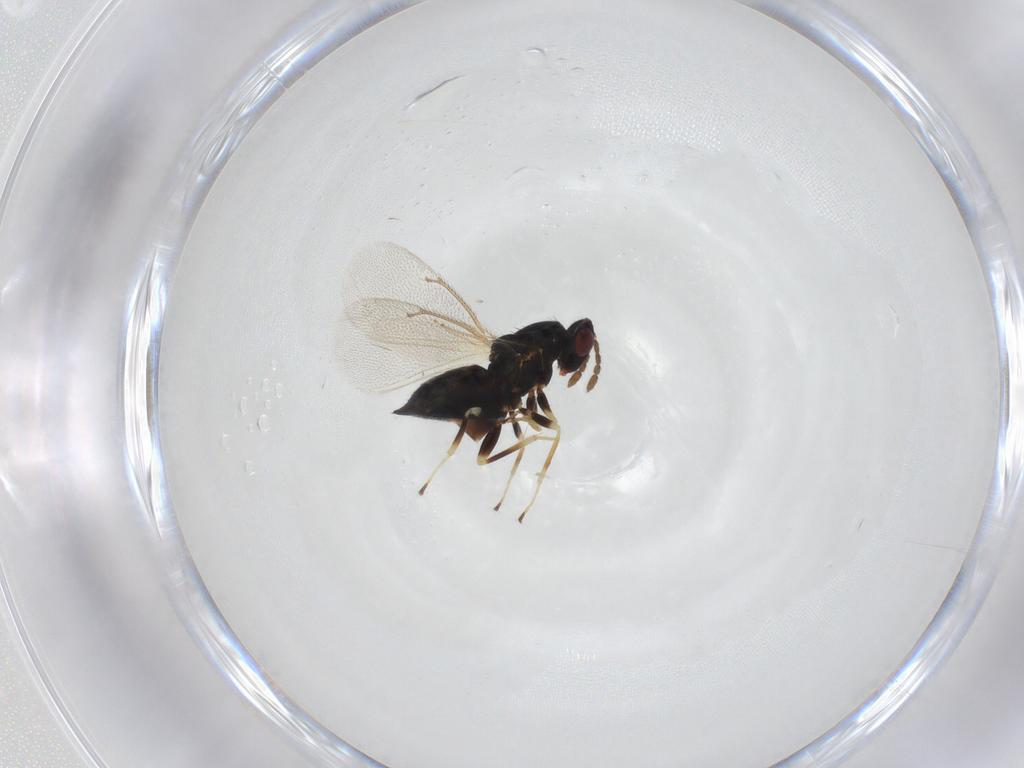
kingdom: Animalia
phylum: Arthropoda
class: Insecta
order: Hymenoptera
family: Eulophidae
